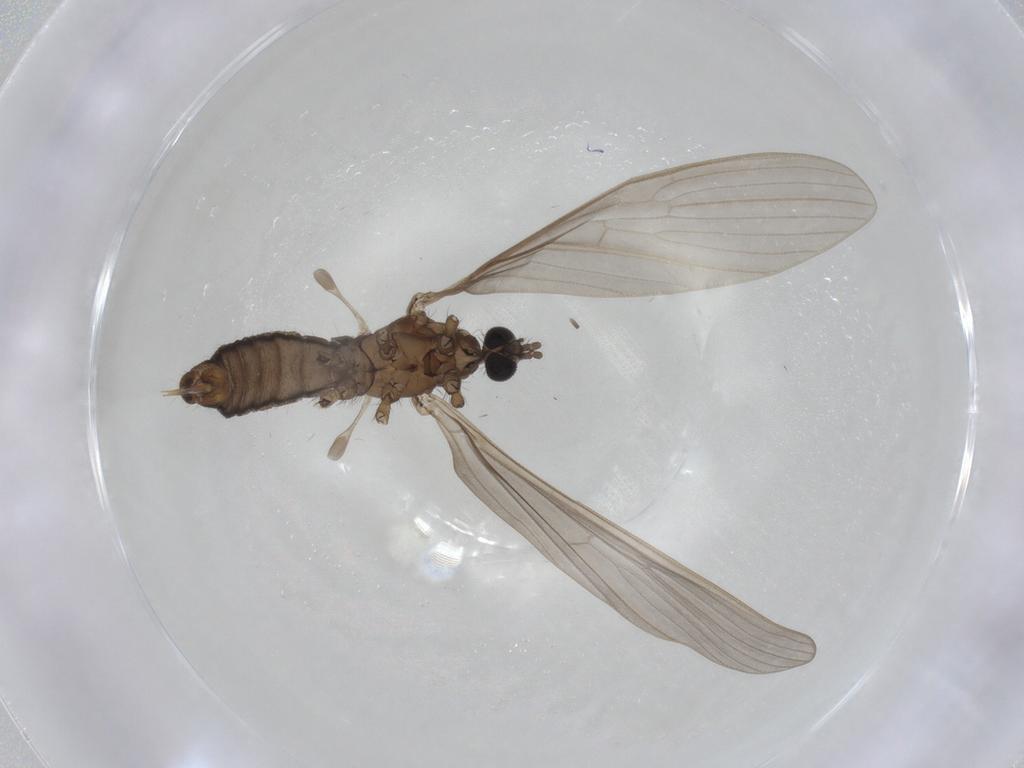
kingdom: Animalia
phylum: Arthropoda
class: Insecta
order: Diptera
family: Limoniidae
